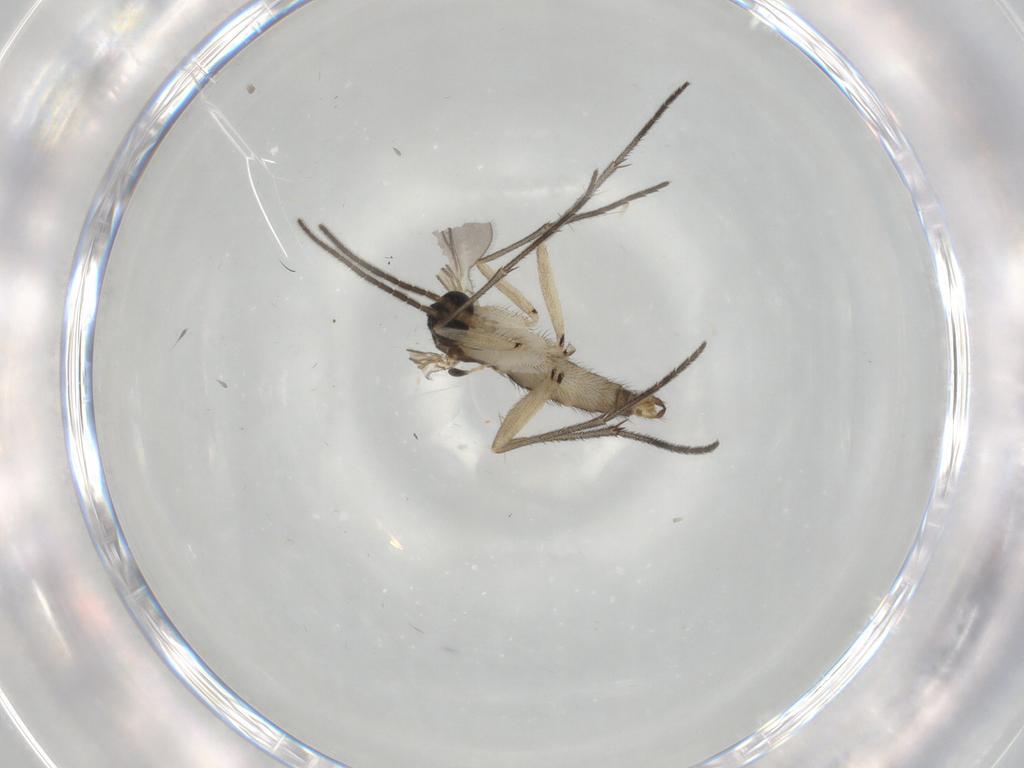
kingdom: Animalia
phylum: Arthropoda
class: Insecta
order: Diptera
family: Sciaridae
